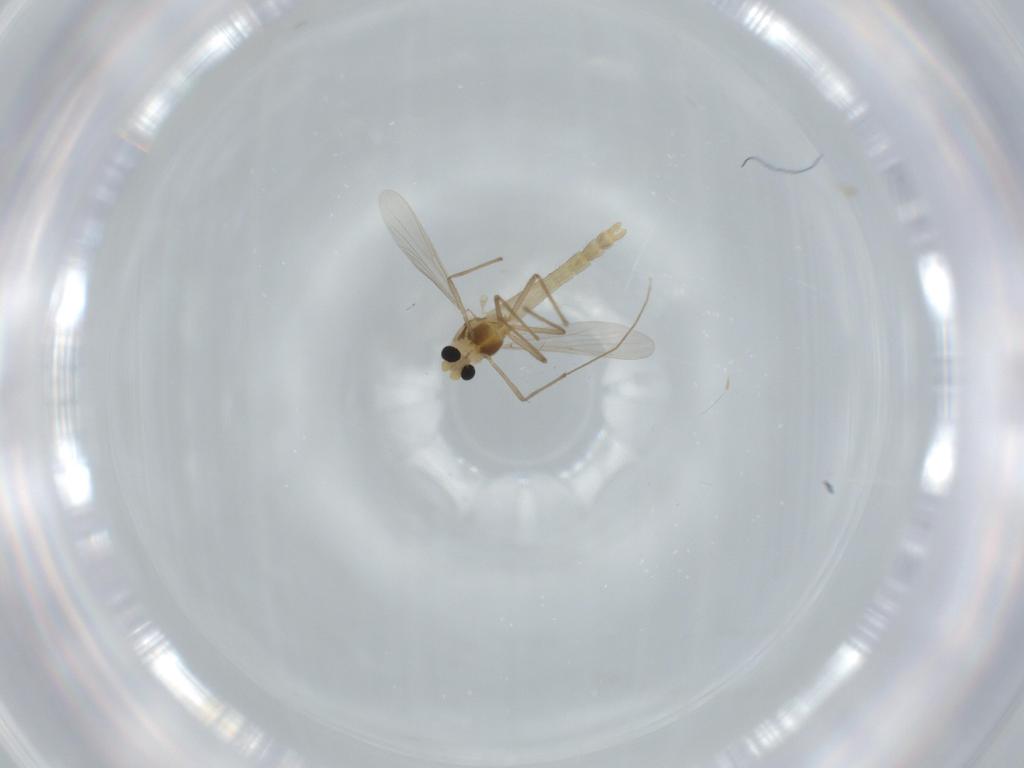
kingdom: Animalia
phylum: Arthropoda
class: Insecta
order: Diptera
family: Chironomidae
